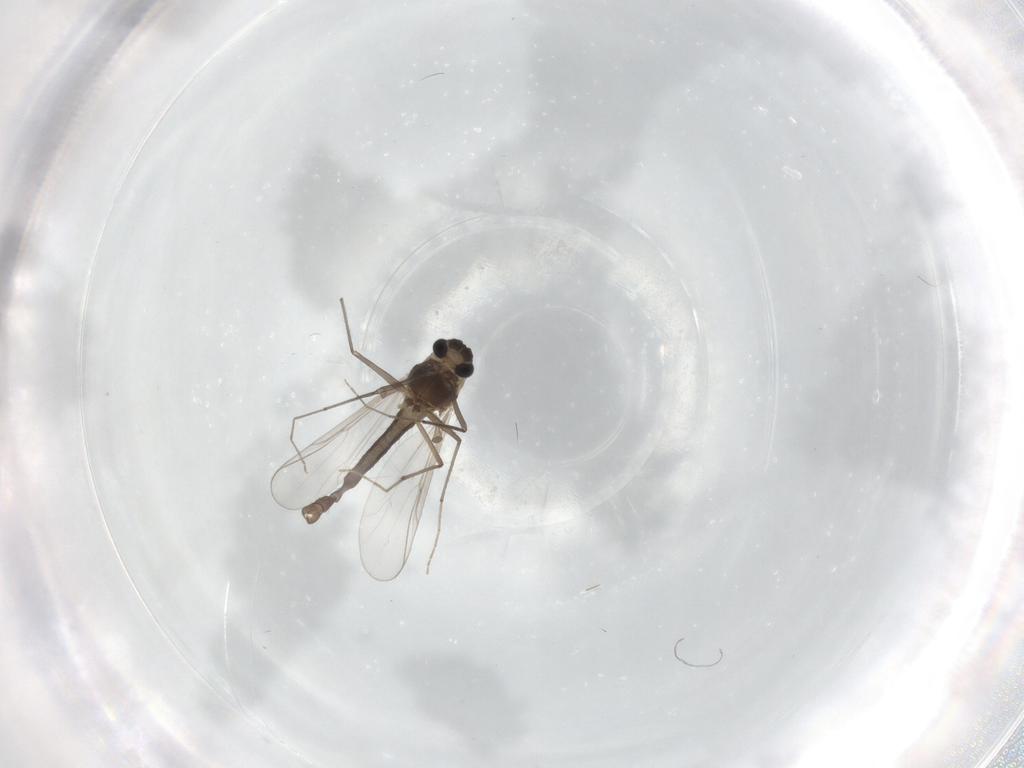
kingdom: Animalia
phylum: Arthropoda
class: Insecta
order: Diptera
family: Chironomidae
